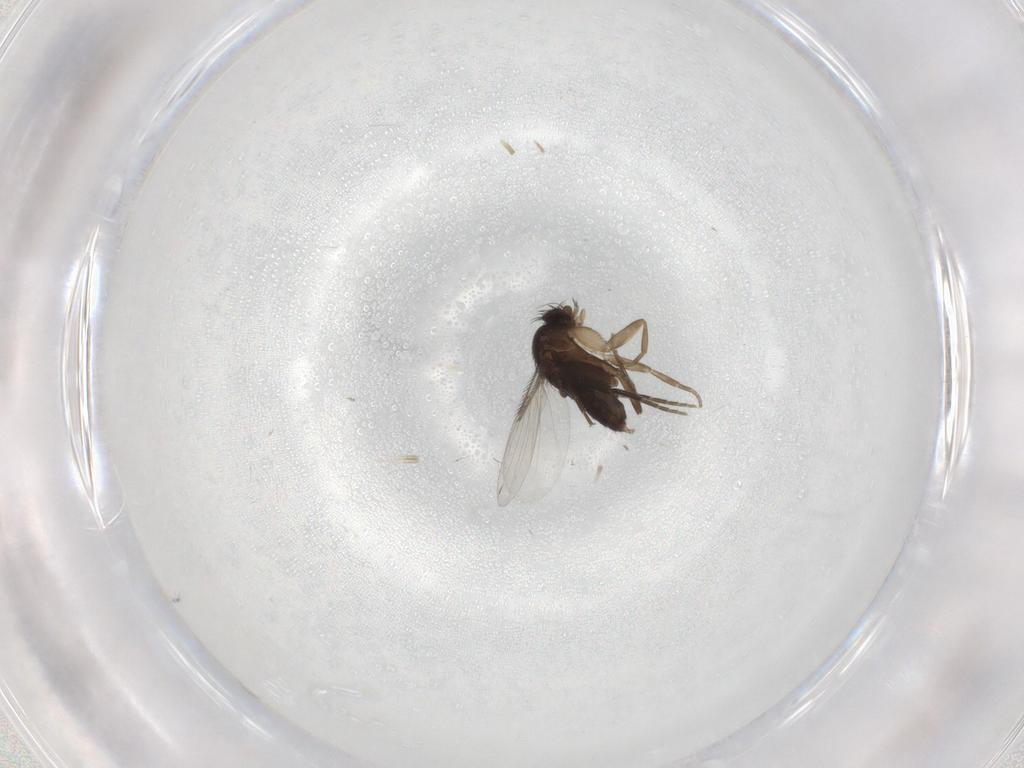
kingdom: Animalia
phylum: Arthropoda
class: Insecta
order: Diptera
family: Phoridae
